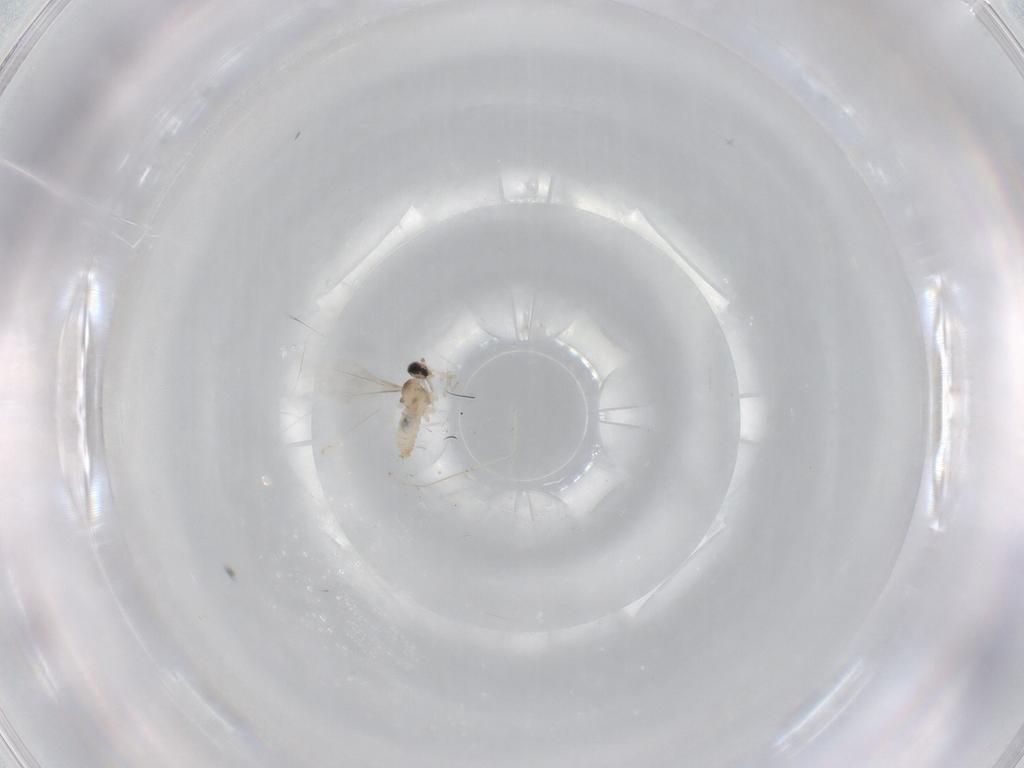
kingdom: Animalia
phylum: Arthropoda
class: Insecta
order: Diptera
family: Cecidomyiidae
